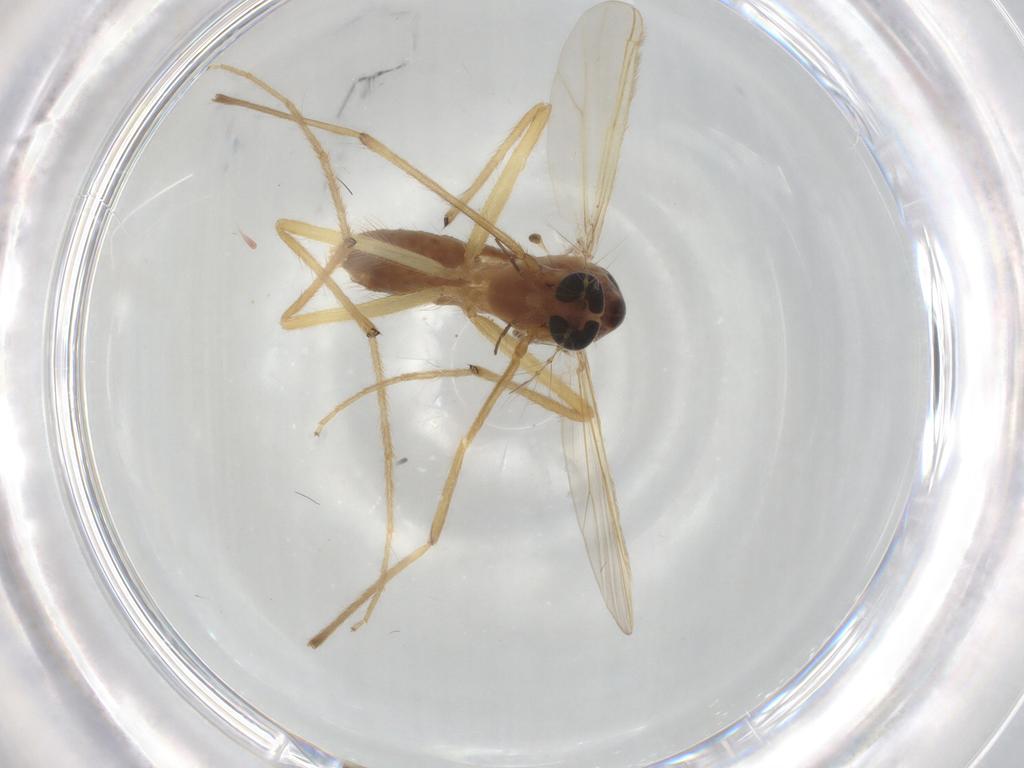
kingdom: Animalia
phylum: Arthropoda
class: Insecta
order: Diptera
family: Chironomidae
